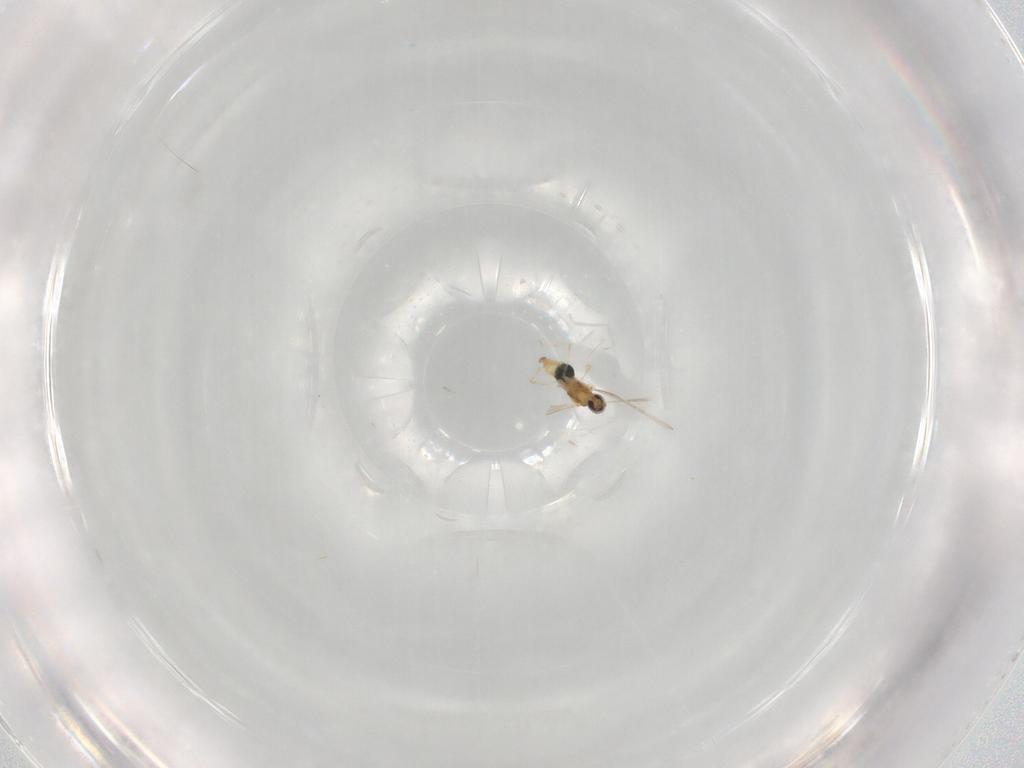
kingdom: Animalia
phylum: Arthropoda
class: Insecta
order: Diptera
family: Cecidomyiidae
